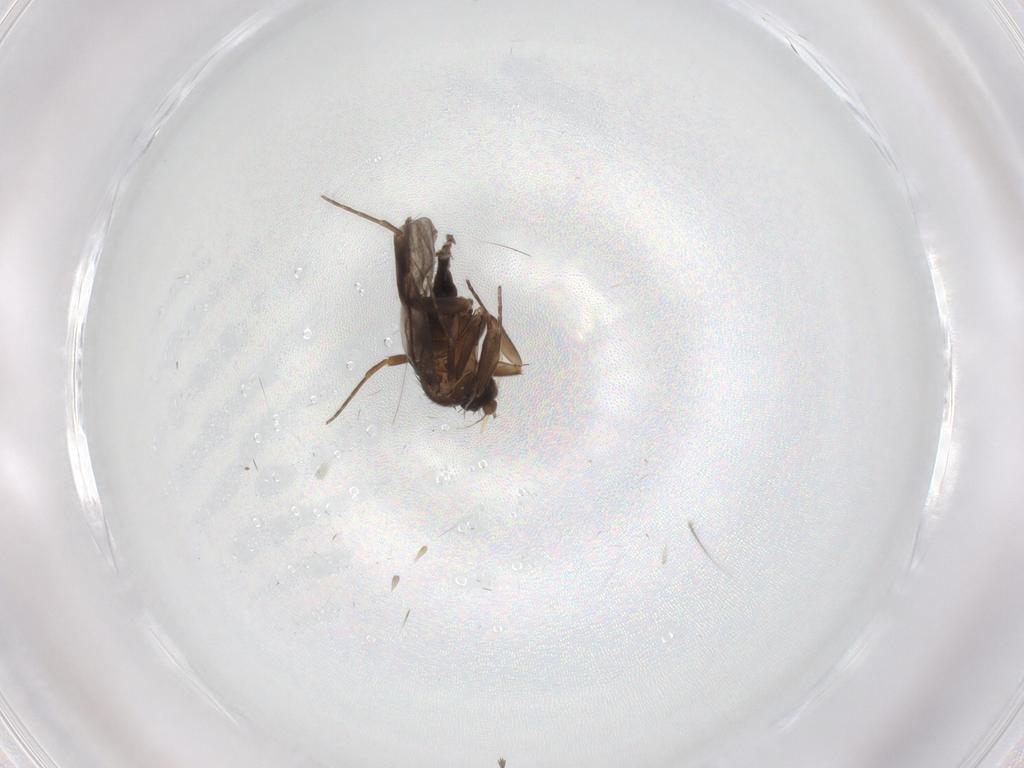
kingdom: Animalia
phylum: Arthropoda
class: Insecta
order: Diptera
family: Chironomidae
